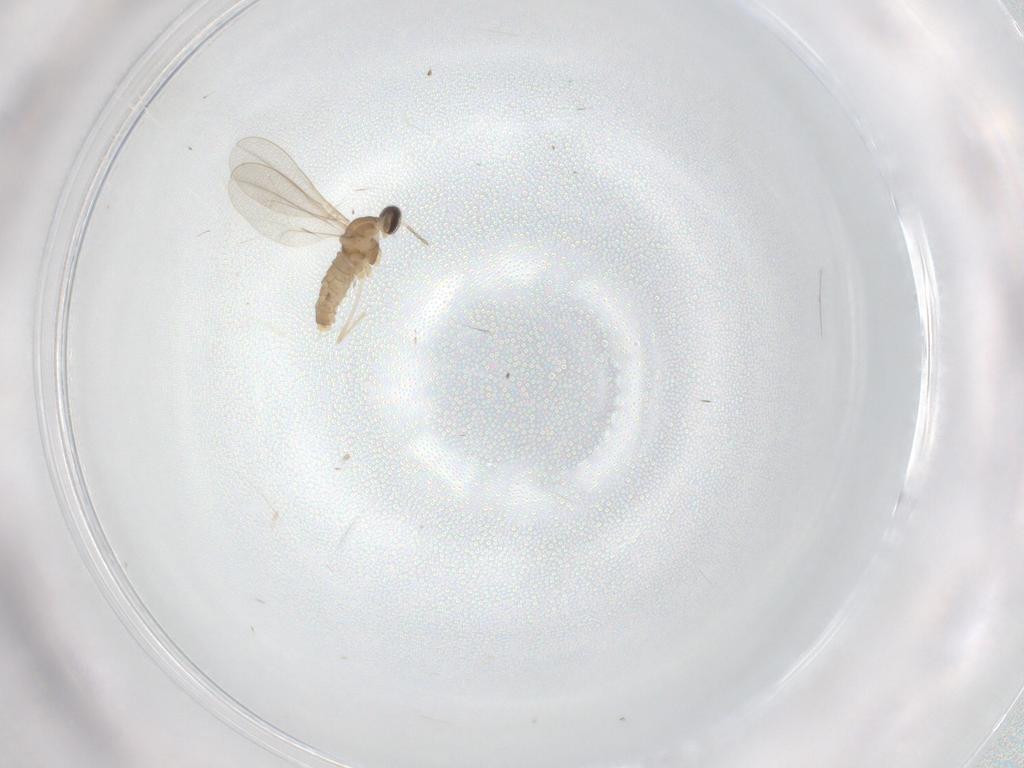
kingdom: Animalia
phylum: Arthropoda
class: Insecta
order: Diptera
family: Cecidomyiidae
